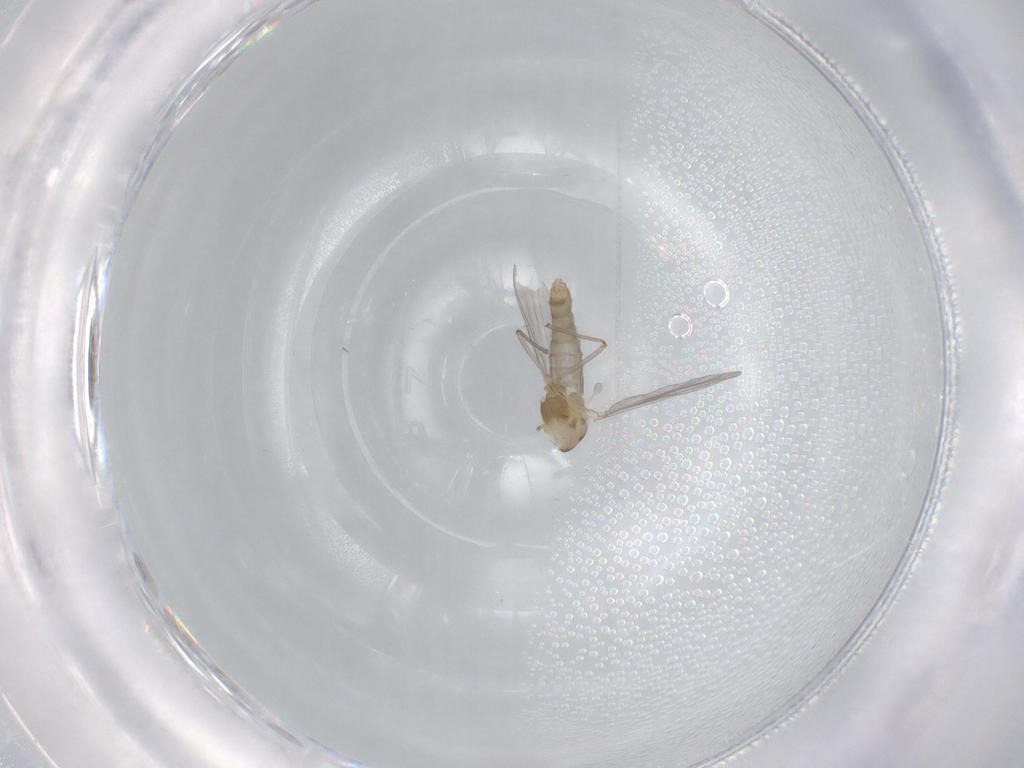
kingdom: Animalia
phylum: Arthropoda
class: Insecta
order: Diptera
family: Chironomidae
